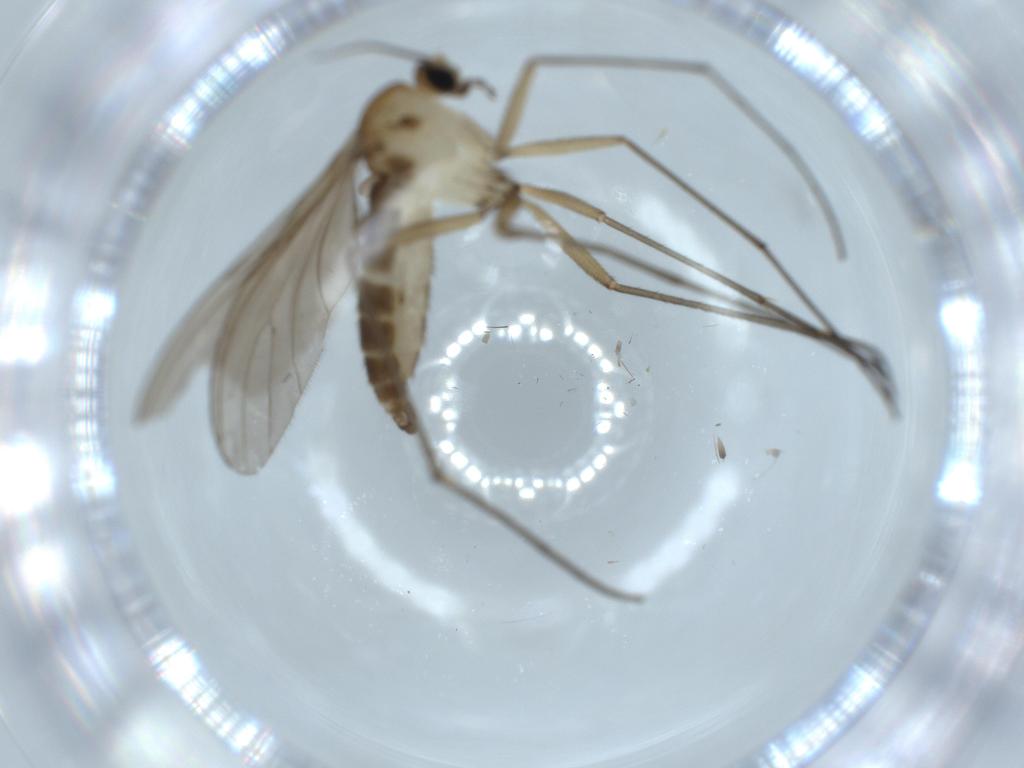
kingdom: Animalia
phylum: Arthropoda
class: Insecta
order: Diptera
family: Sciaridae
